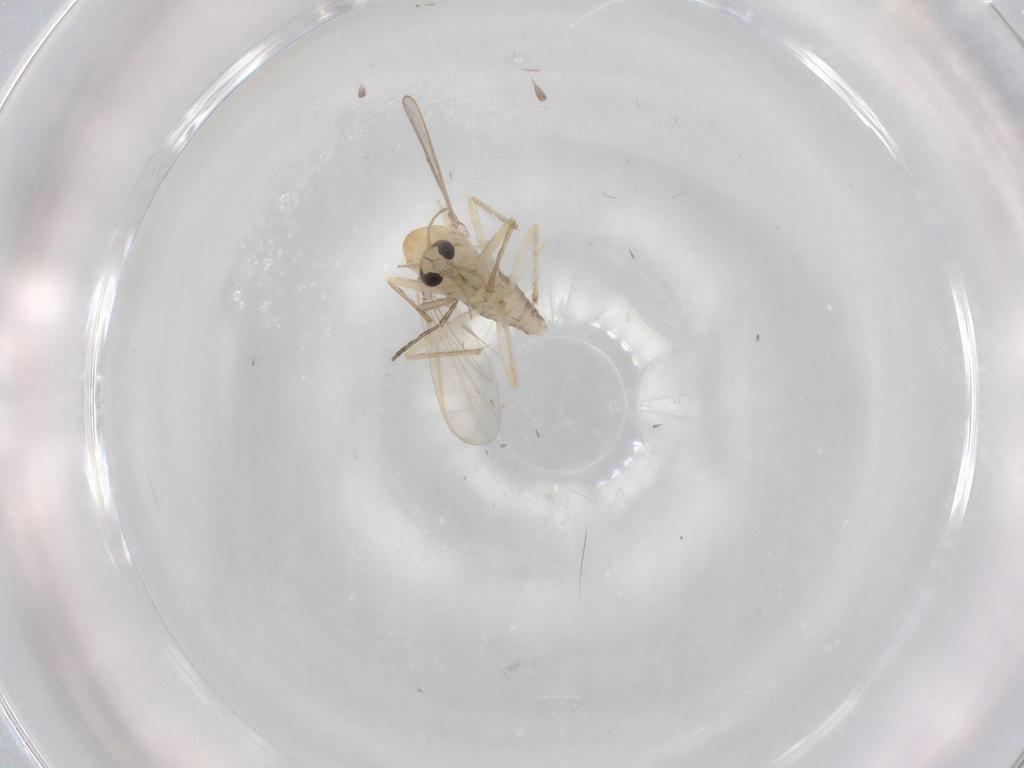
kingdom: Animalia
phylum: Arthropoda
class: Insecta
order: Diptera
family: Chironomidae
